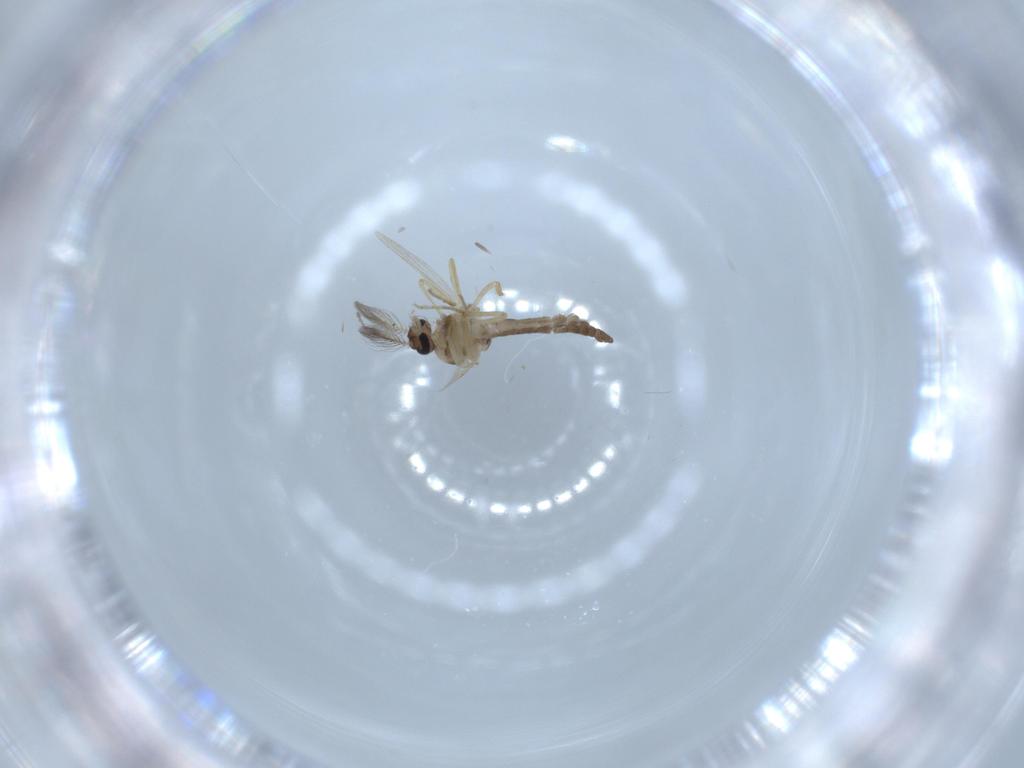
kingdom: Animalia
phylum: Arthropoda
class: Insecta
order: Diptera
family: Ceratopogonidae
